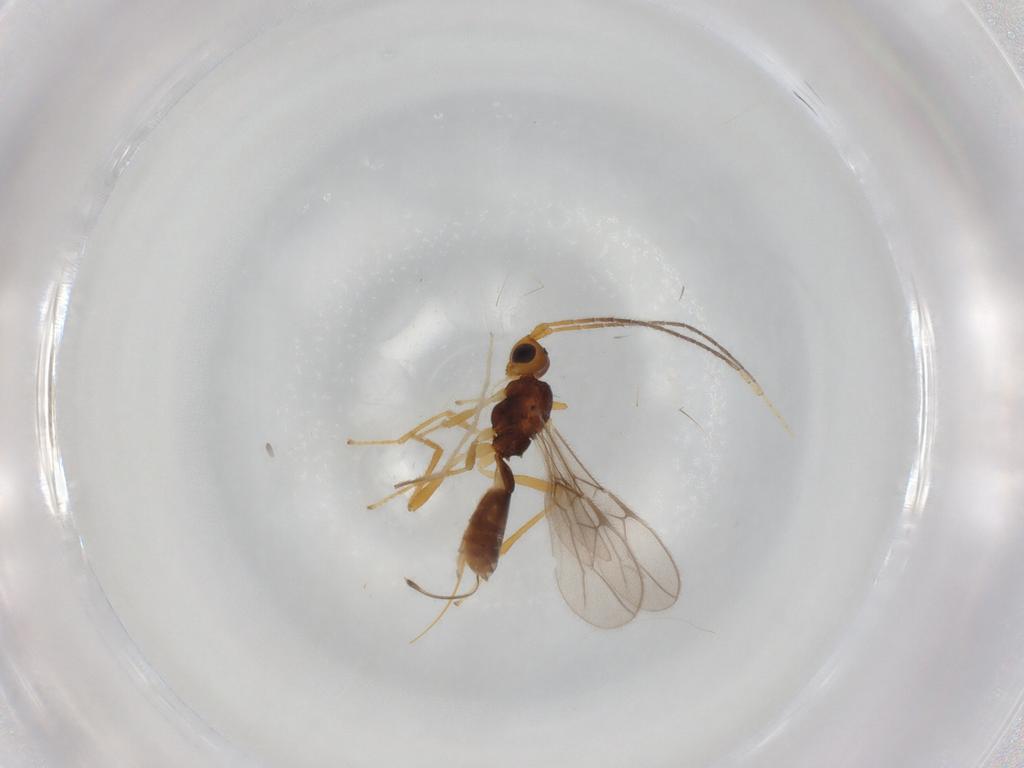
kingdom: Animalia
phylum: Arthropoda
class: Insecta
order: Hymenoptera
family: Braconidae
